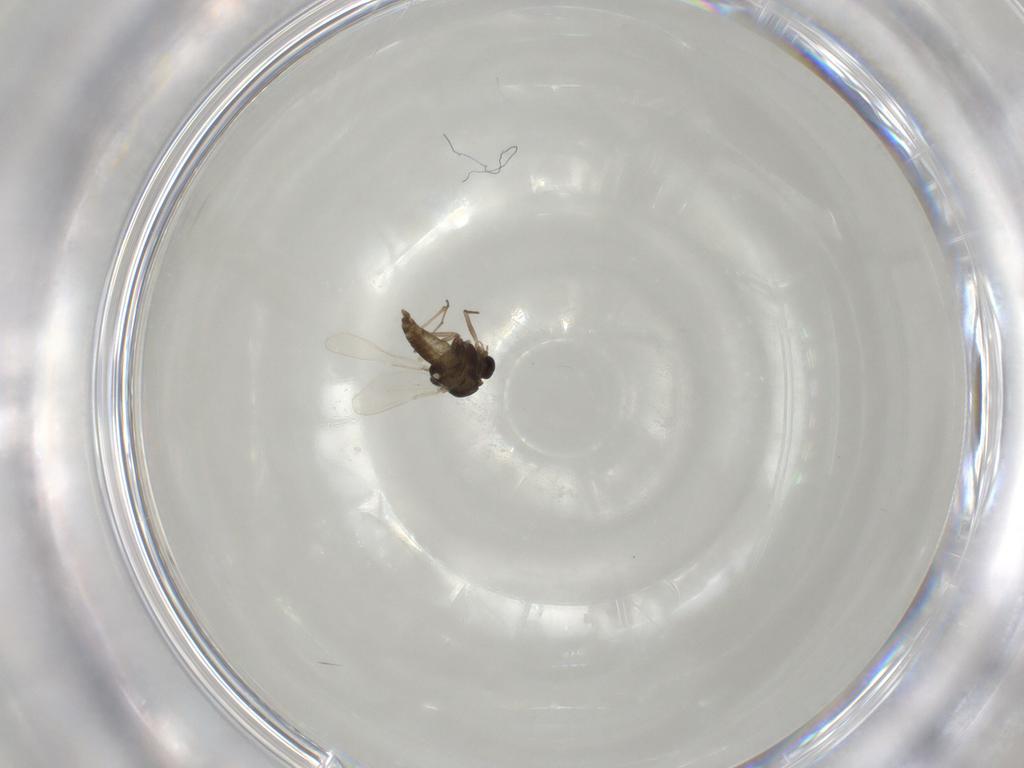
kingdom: Animalia
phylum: Arthropoda
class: Insecta
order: Diptera
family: Chironomidae
